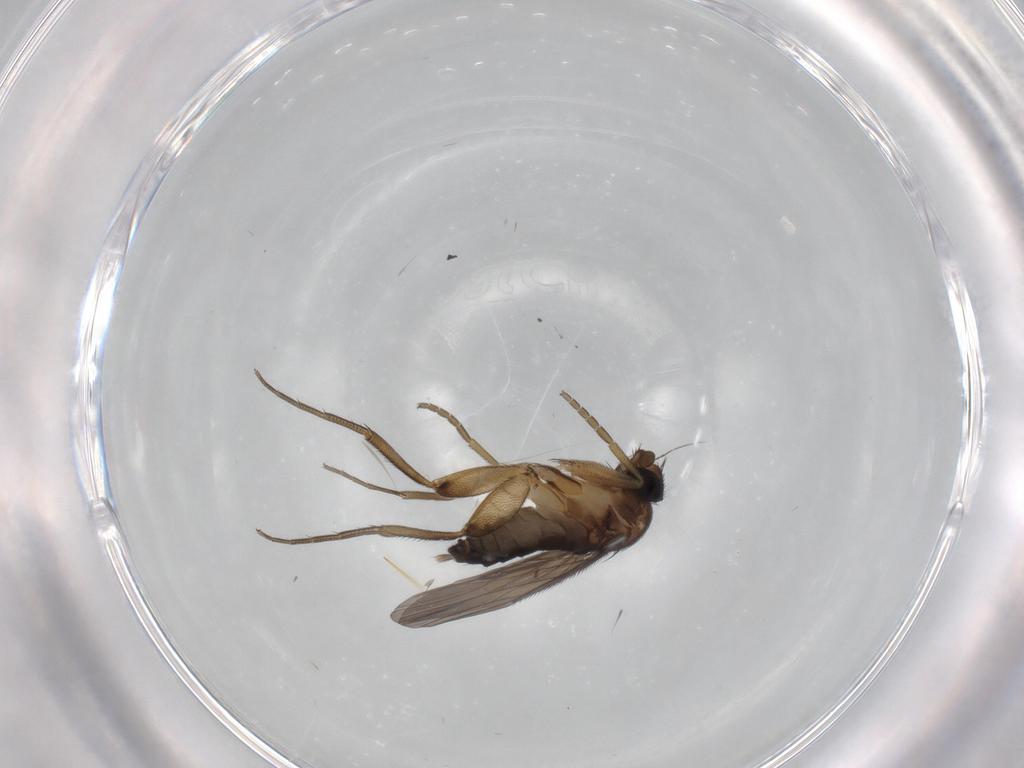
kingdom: Animalia
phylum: Arthropoda
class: Insecta
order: Diptera
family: Phoridae
